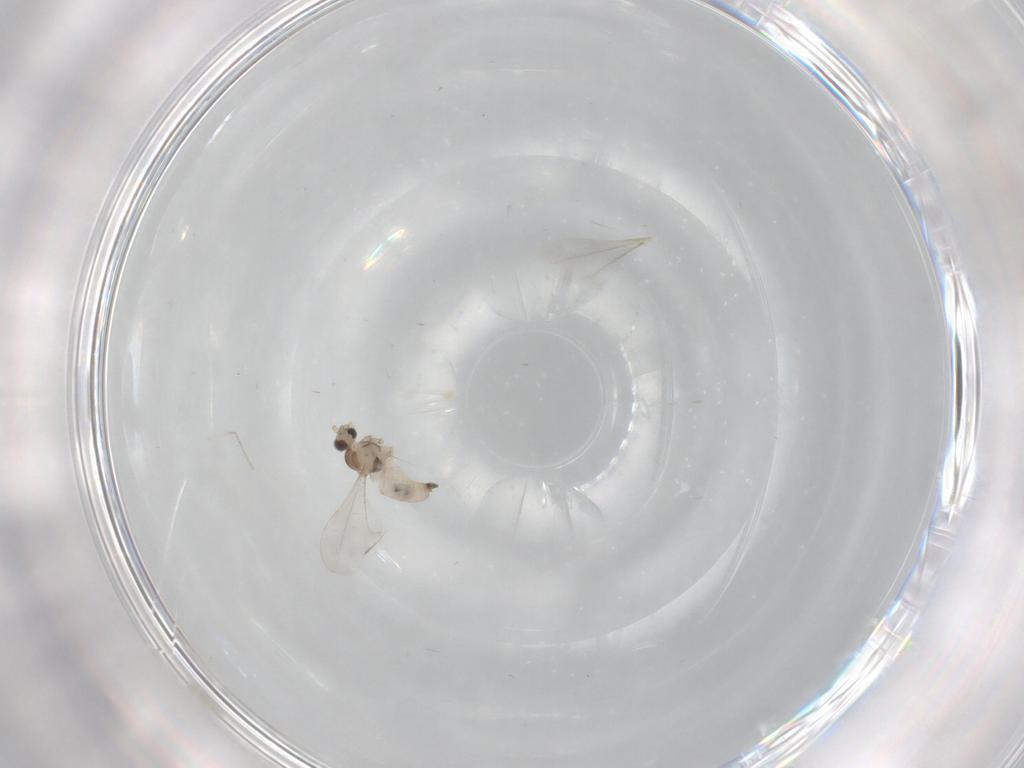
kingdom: Animalia
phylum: Arthropoda
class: Insecta
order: Diptera
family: Cecidomyiidae
